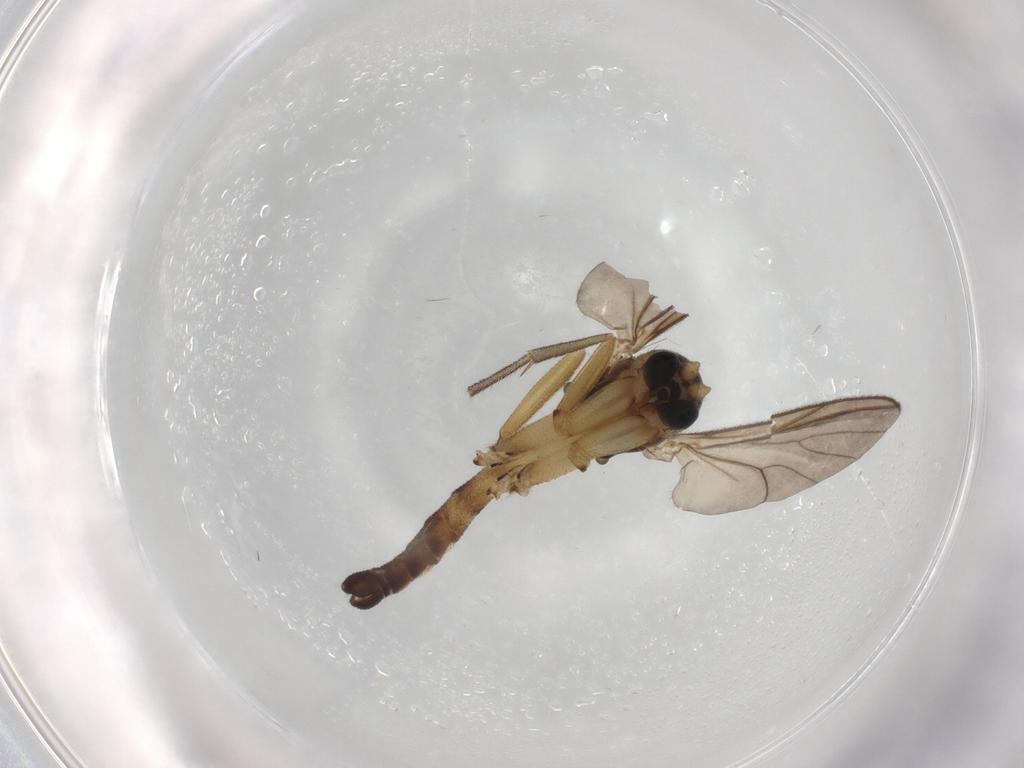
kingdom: Animalia
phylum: Arthropoda
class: Insecta
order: Diptera
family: Mycetophilidae
